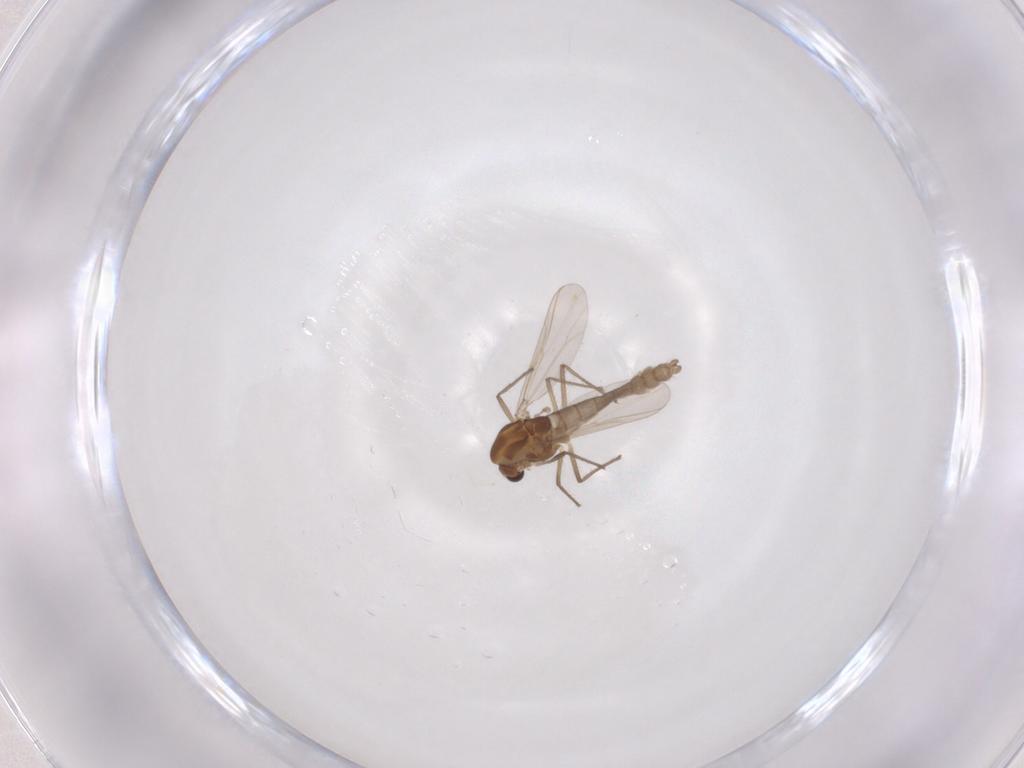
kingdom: Animalia
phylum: Arthropoda
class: Insecta
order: Diptera
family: Chironomidae
